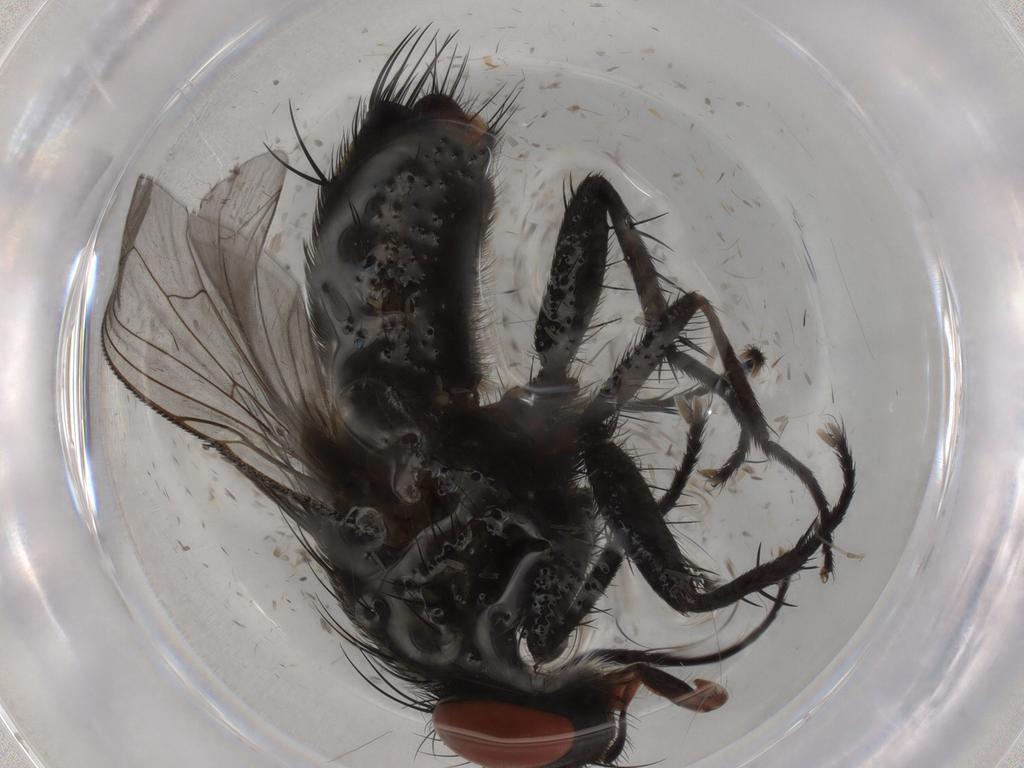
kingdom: Animalia
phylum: Arthropoda
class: Insecta
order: Diptera
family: Sarcophagidae
